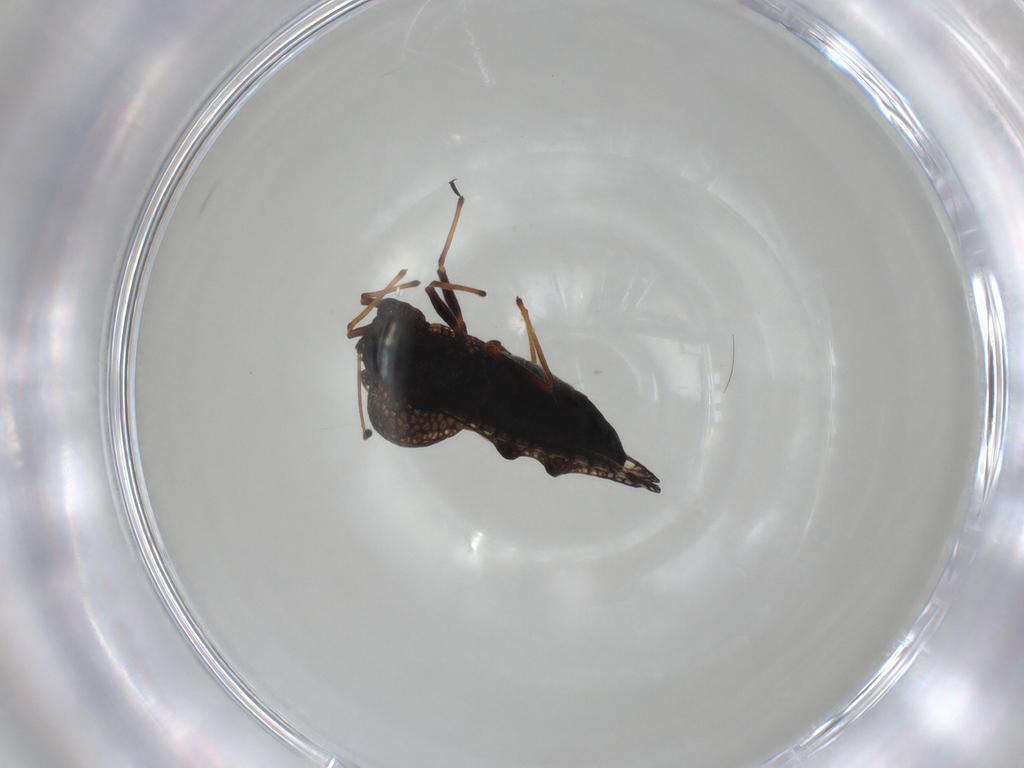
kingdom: Animalia
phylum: Arthropoda
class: Insecta
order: Hemiptera
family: Tingidae
